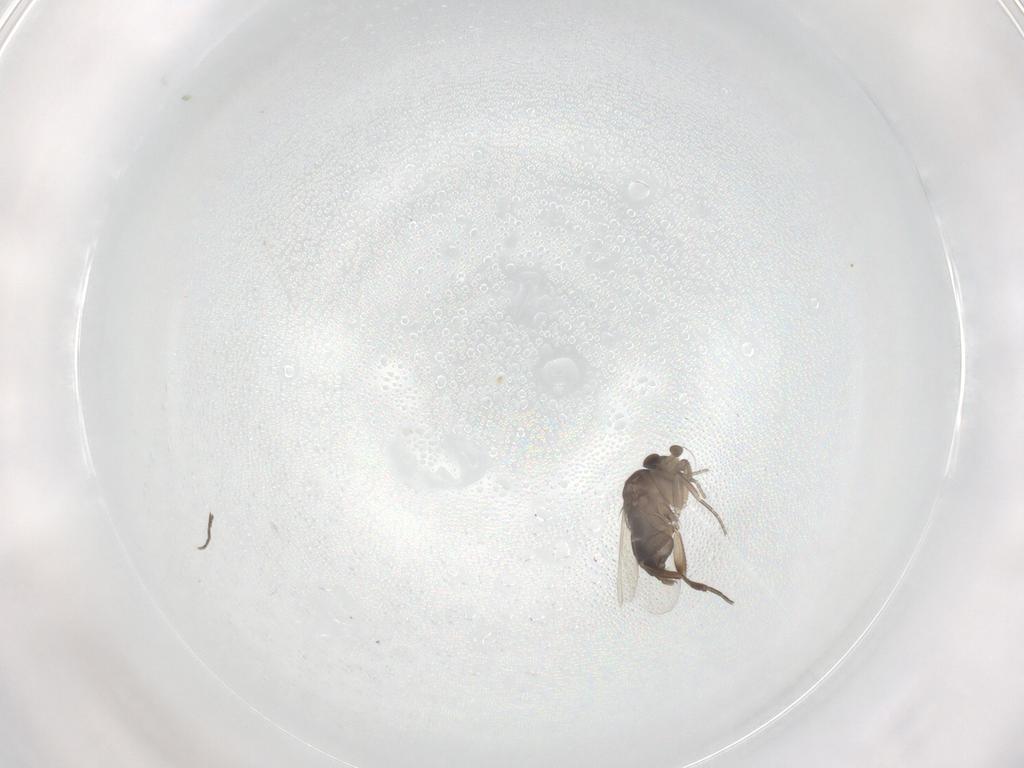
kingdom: Animalia
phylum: Arthropoda
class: Insecta
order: Diptera
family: Phoridae
